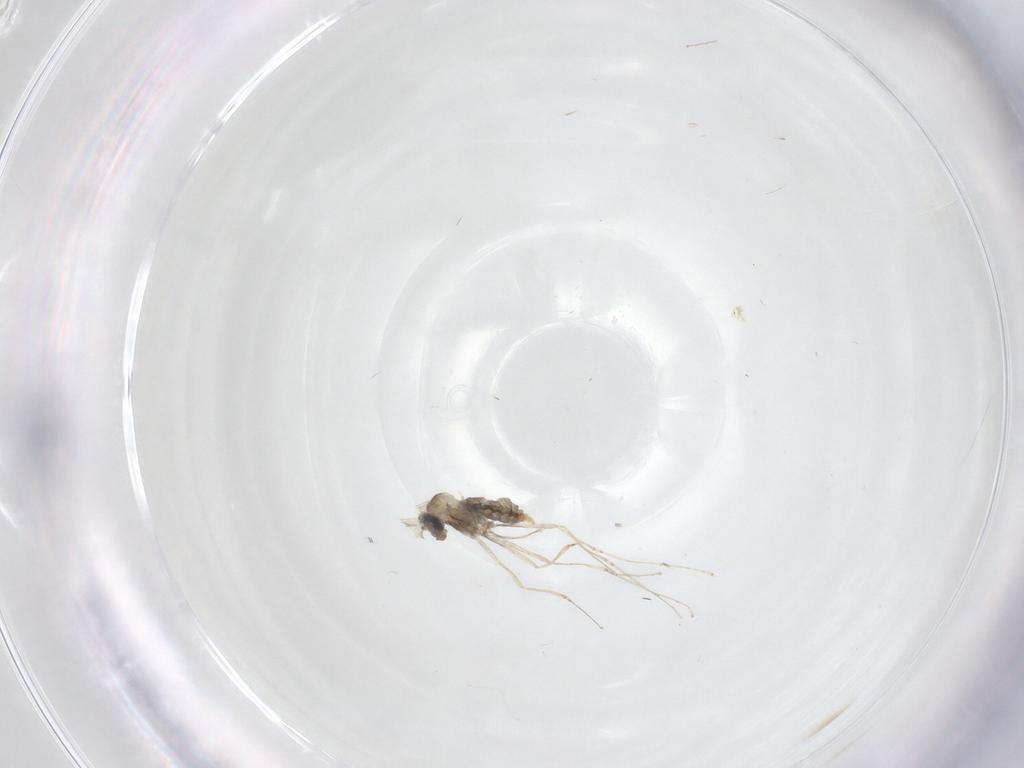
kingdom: Animalia
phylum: Arthropoda
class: Insecta
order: Diptera
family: Chironomidae
